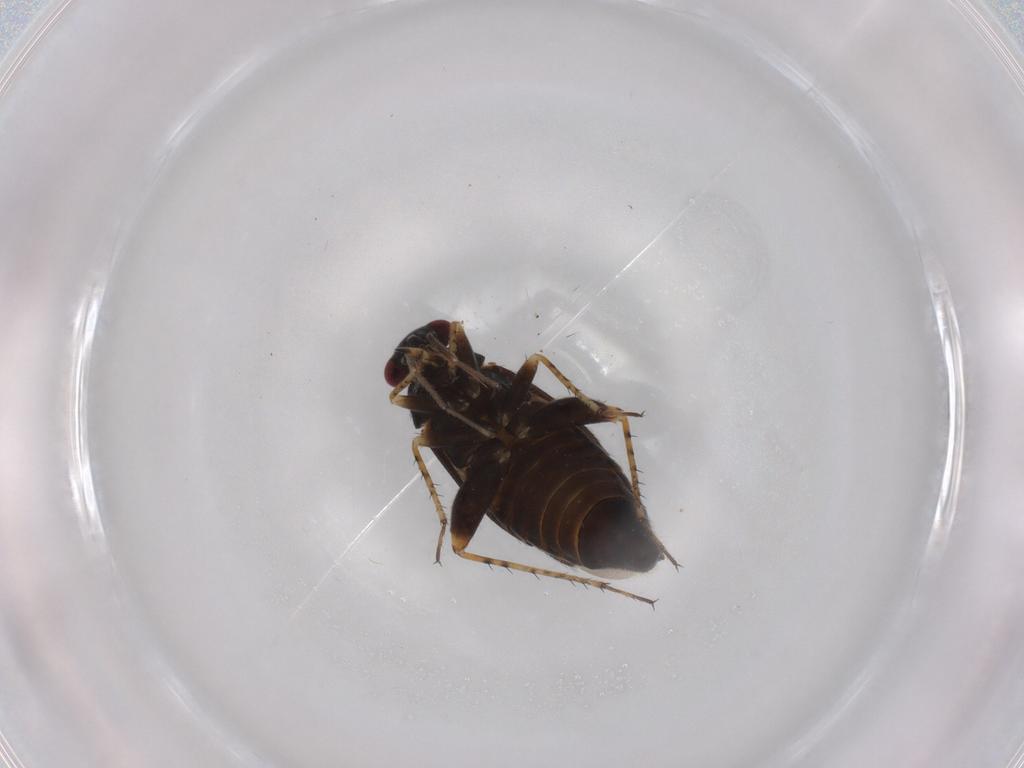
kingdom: Animalia
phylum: Arthropoda
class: Insecta
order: Hemiptera
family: Miridae
